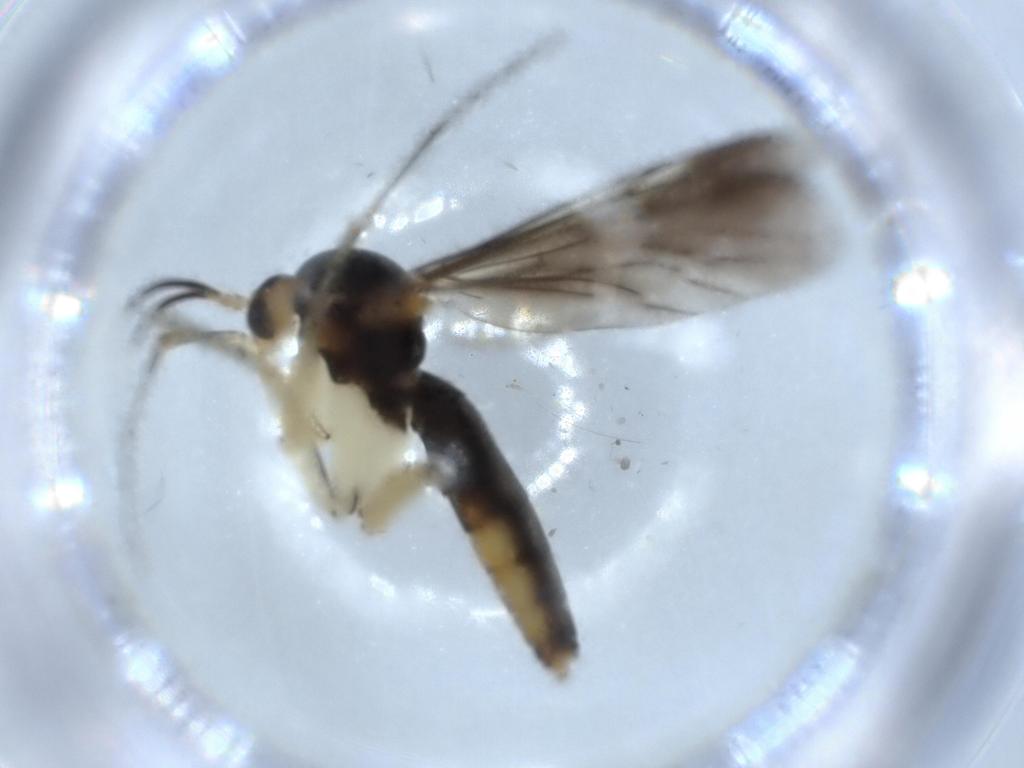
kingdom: Animalia
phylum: Arthropoda
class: Insecta
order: Diptera
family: Mycetophilidae
